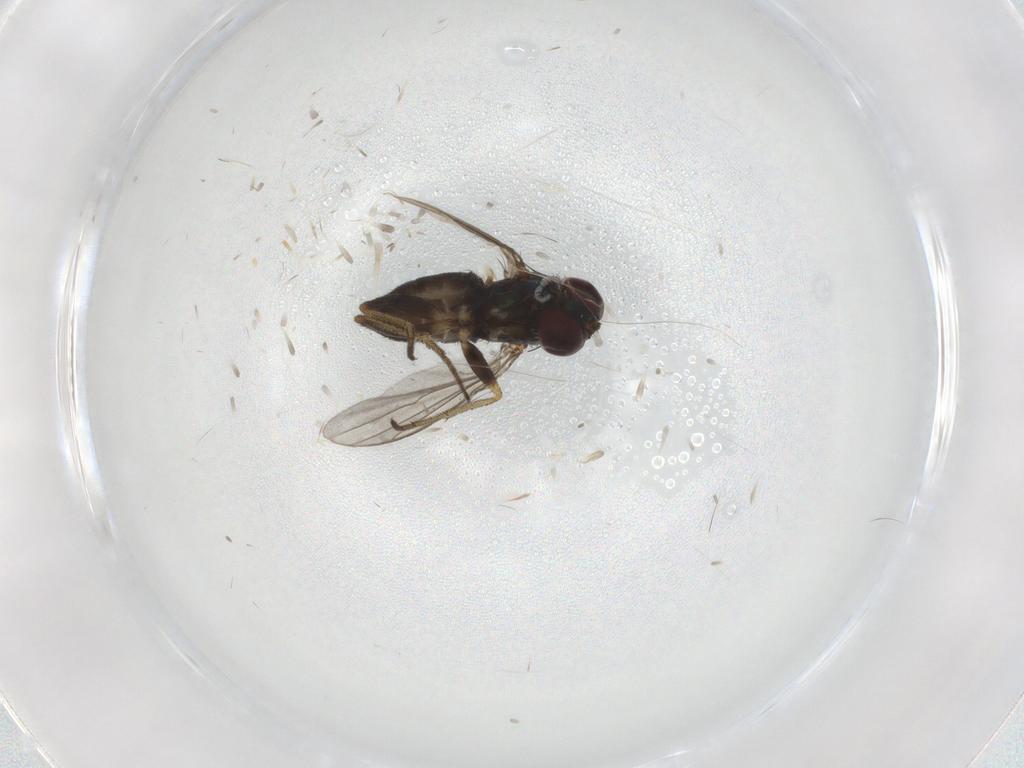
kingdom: Animalia
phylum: Arthropoda
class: Insecta
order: Diptera
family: Cecidomyiidae
